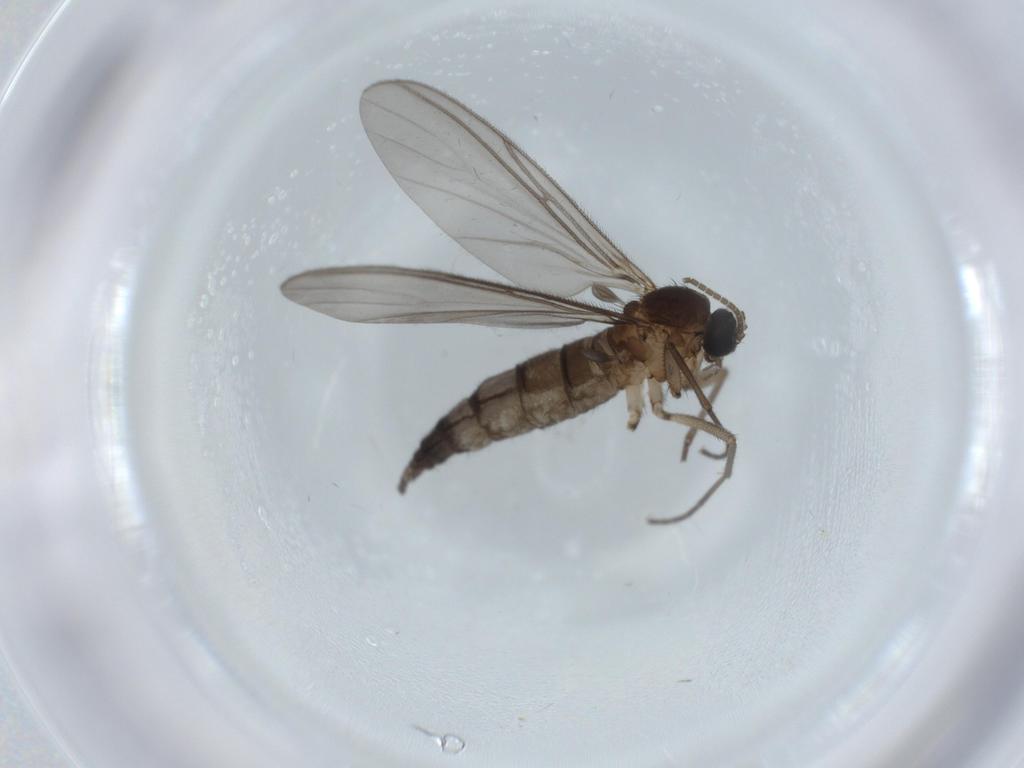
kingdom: Animalia
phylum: Arthropoda
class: Insecta
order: Diptera
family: Sciaridae
